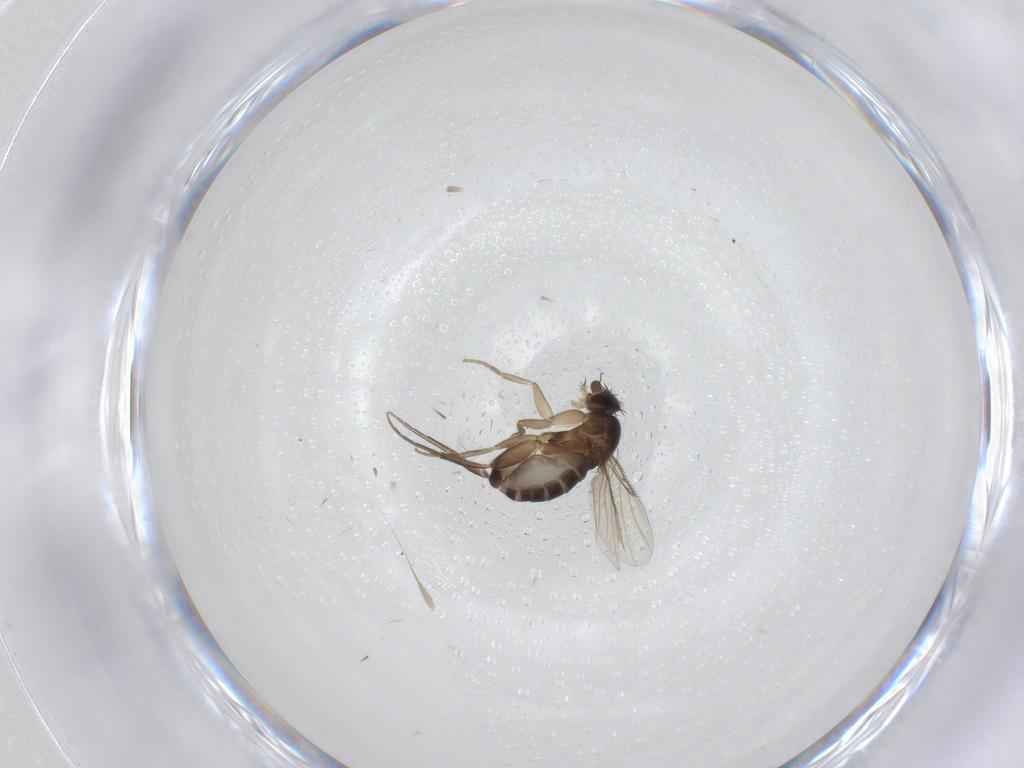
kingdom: Animalia
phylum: Arthropoda
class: Insecta
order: Diptera
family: Phoridae
